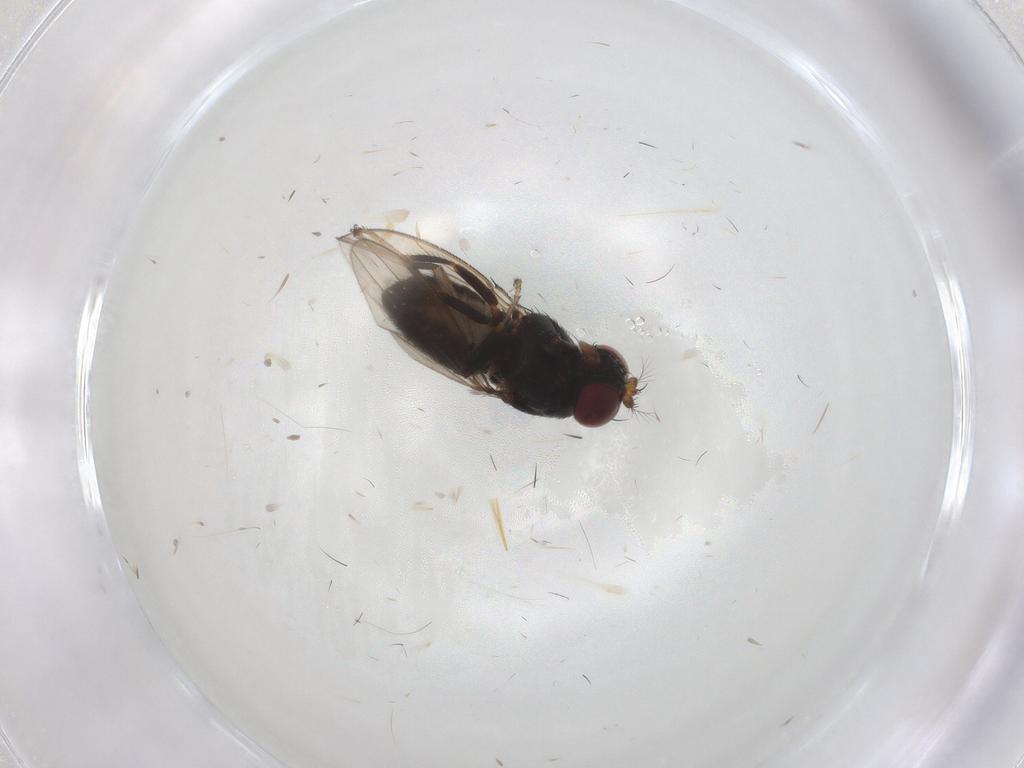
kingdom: Animalia
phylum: Arthropoda
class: Insecta
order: Diptera
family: Ephydridae
